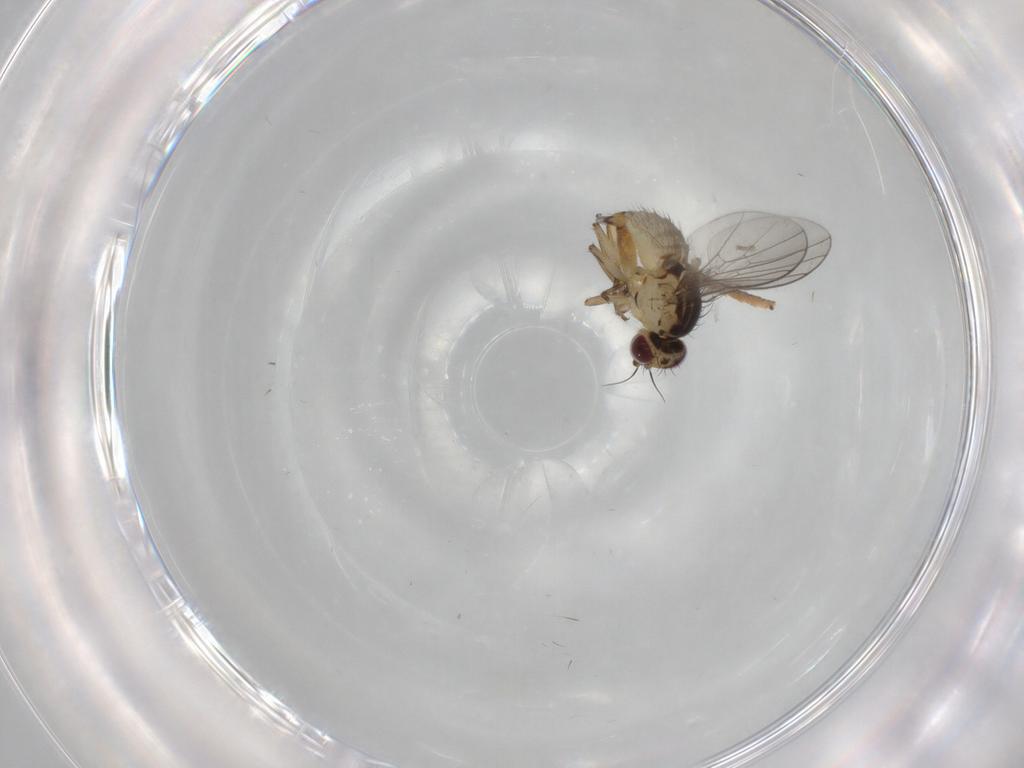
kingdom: Animalia
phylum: Arthropoda
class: Insecta
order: Diptera
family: Agromyzidae
